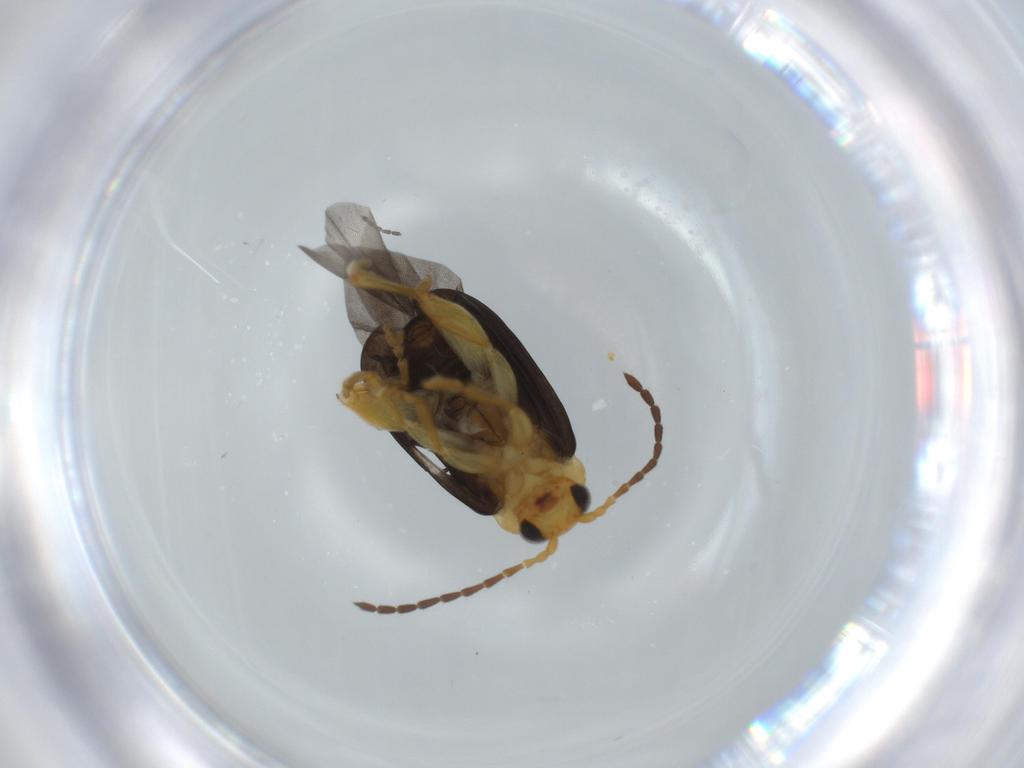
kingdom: Animalia
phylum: Arthropoda
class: Insecta
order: Coleoptera
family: Chrysomelidae
